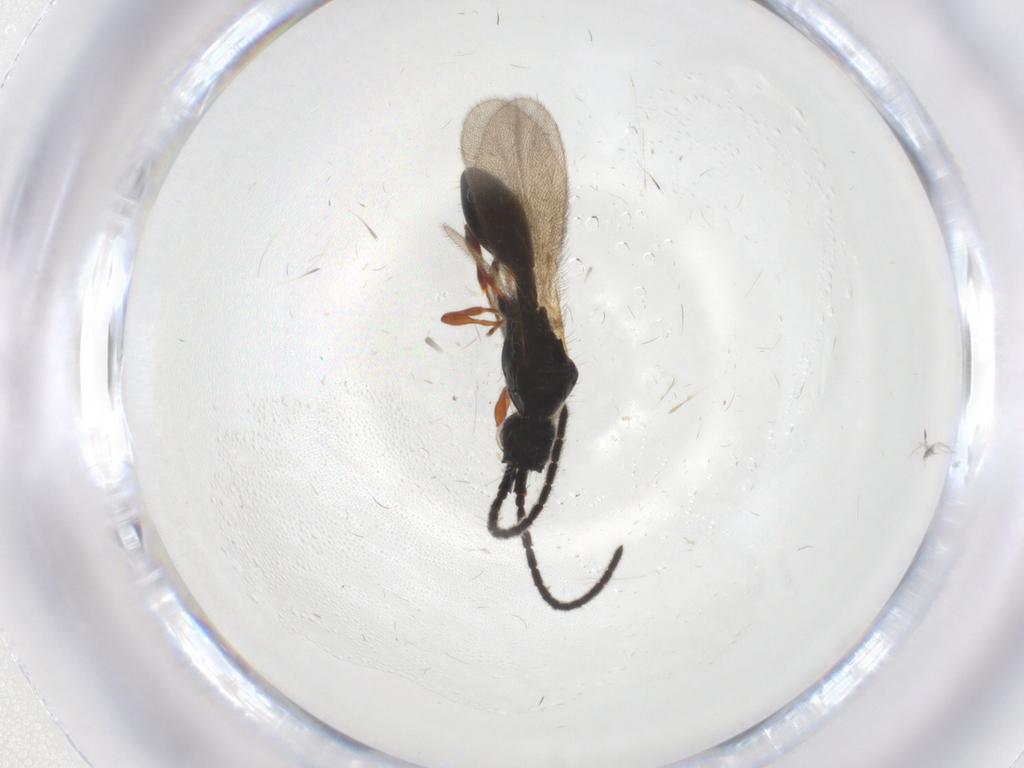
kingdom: Animalia
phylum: Arthropoda
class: Insecta
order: Hymenoptera
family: Diapriidae
